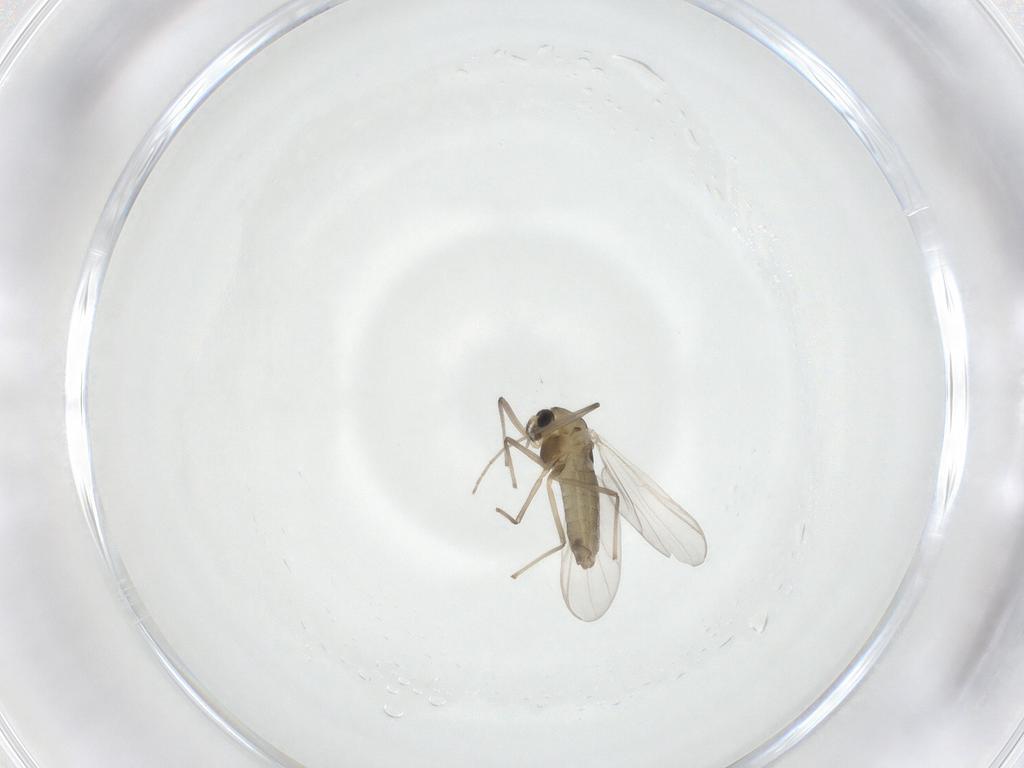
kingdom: Animalia
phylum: Arthropoda
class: Insecta
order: Diptera
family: Chironomidae
